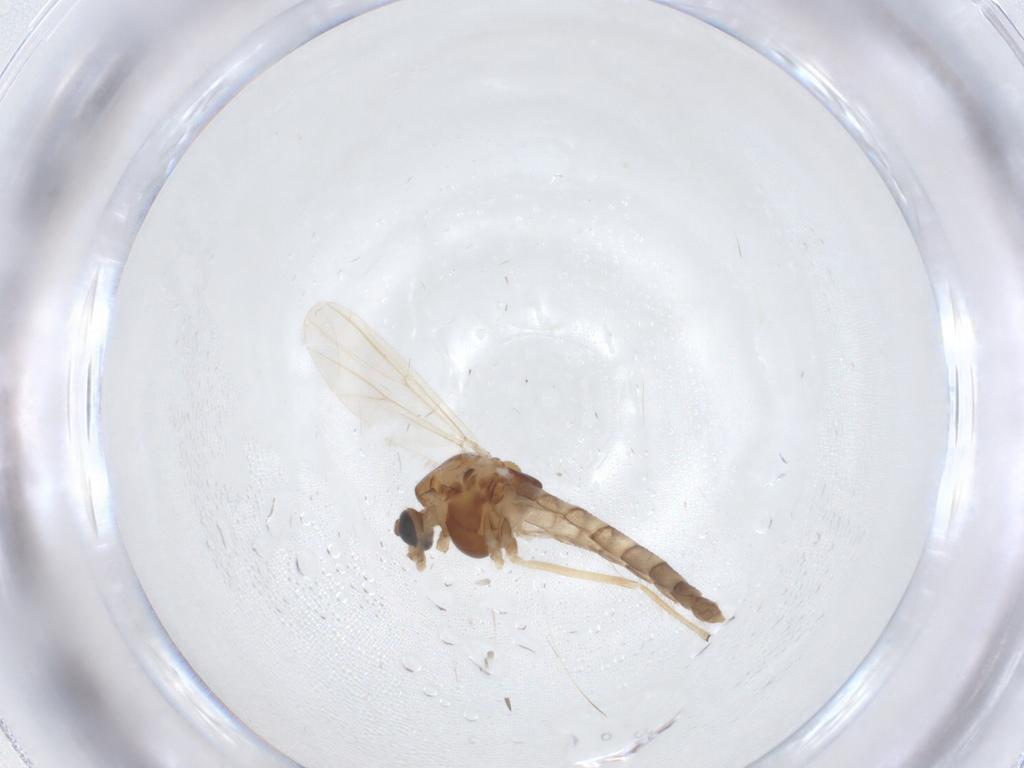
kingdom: Animalia
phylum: Arthropoda
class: Insecta
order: Diptera
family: Chironomidae
